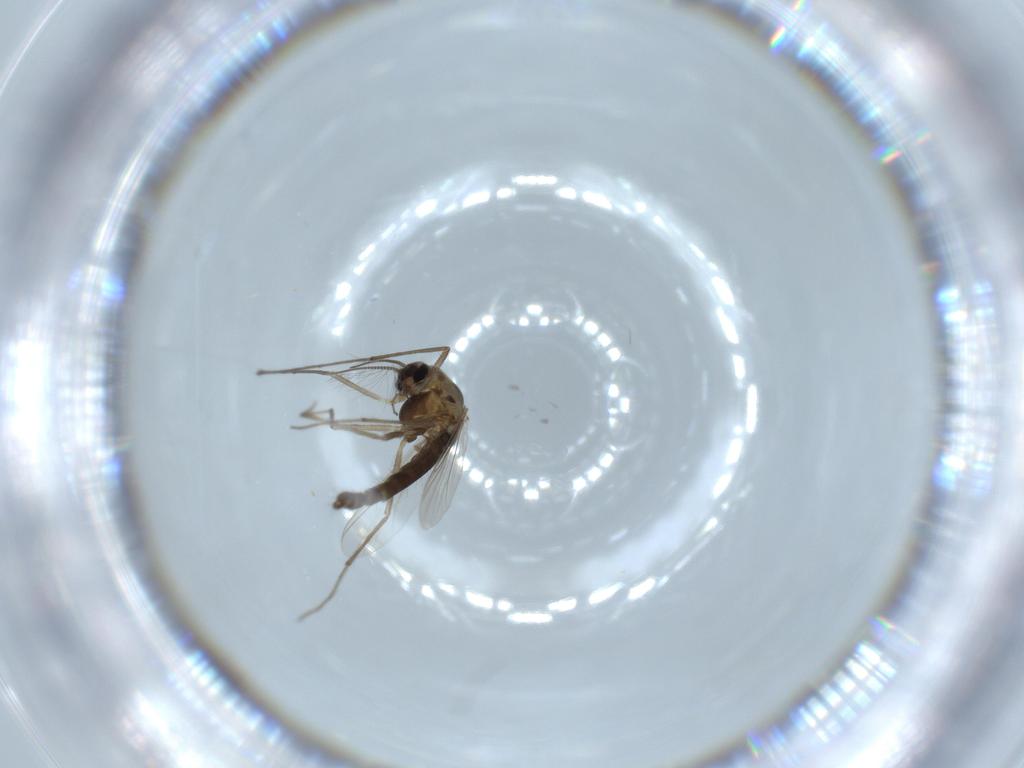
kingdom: Animalia
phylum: Arthropoda
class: Insecta
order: Diptera
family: Chironomidae
